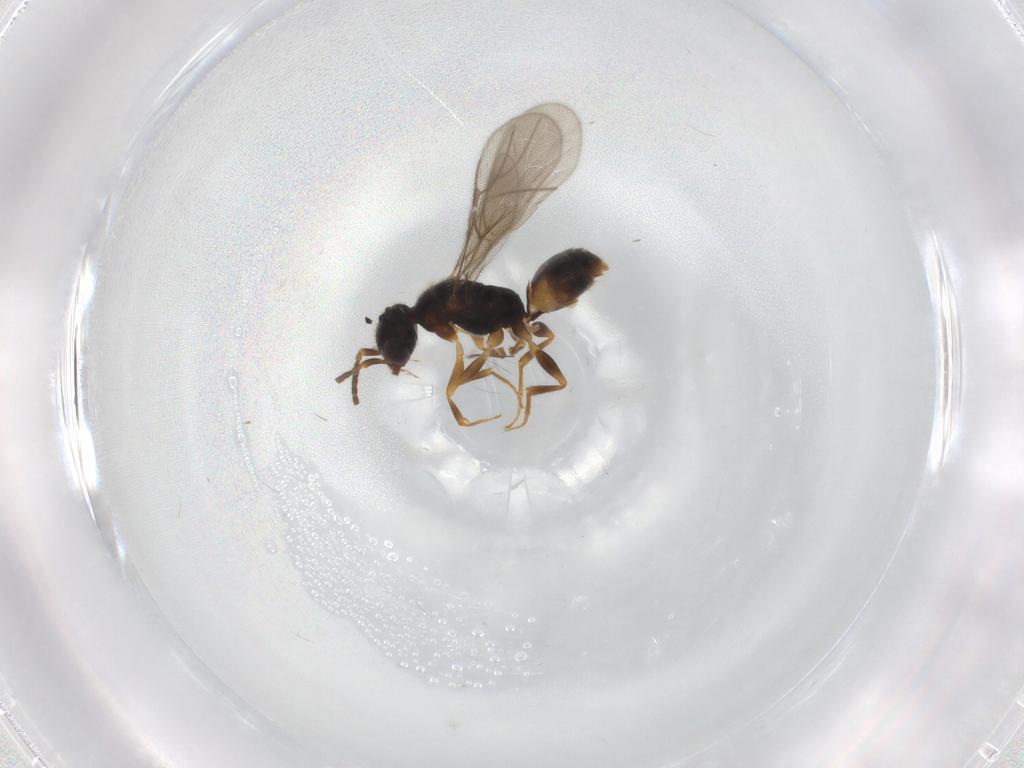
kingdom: Animalia
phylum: Arthropoda
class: Insecta
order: Hymenoptera
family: Bethylidae
